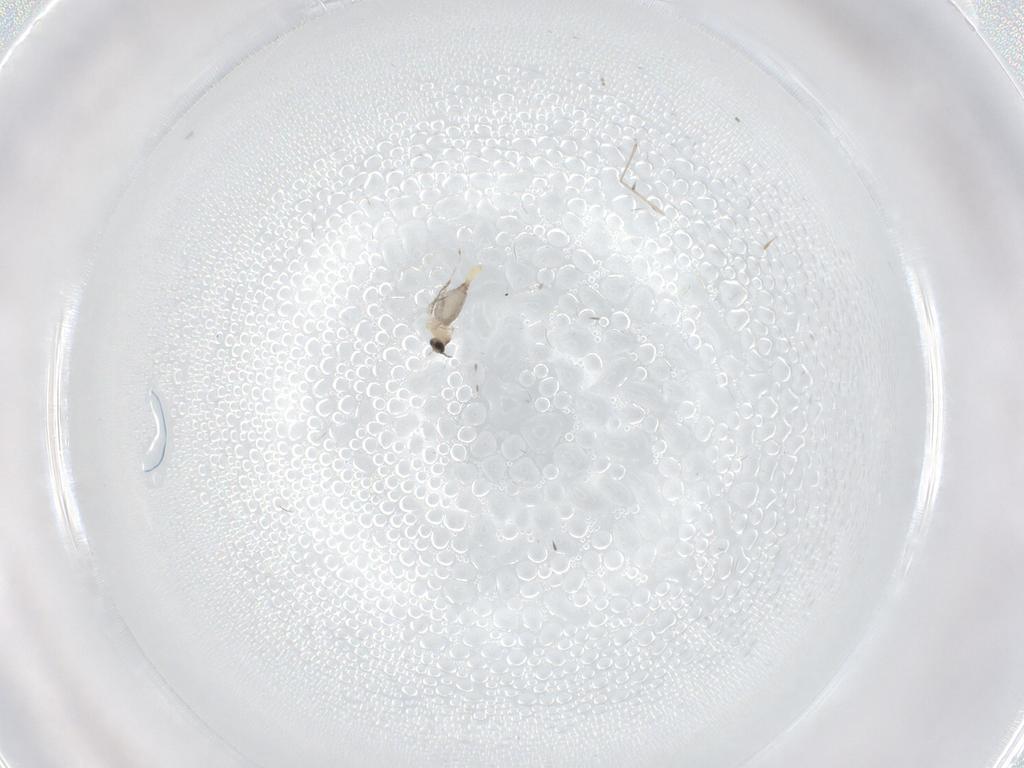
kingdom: Animalia
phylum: Arthropoda
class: Insecta
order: Diptera
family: Cecidomyiidae
